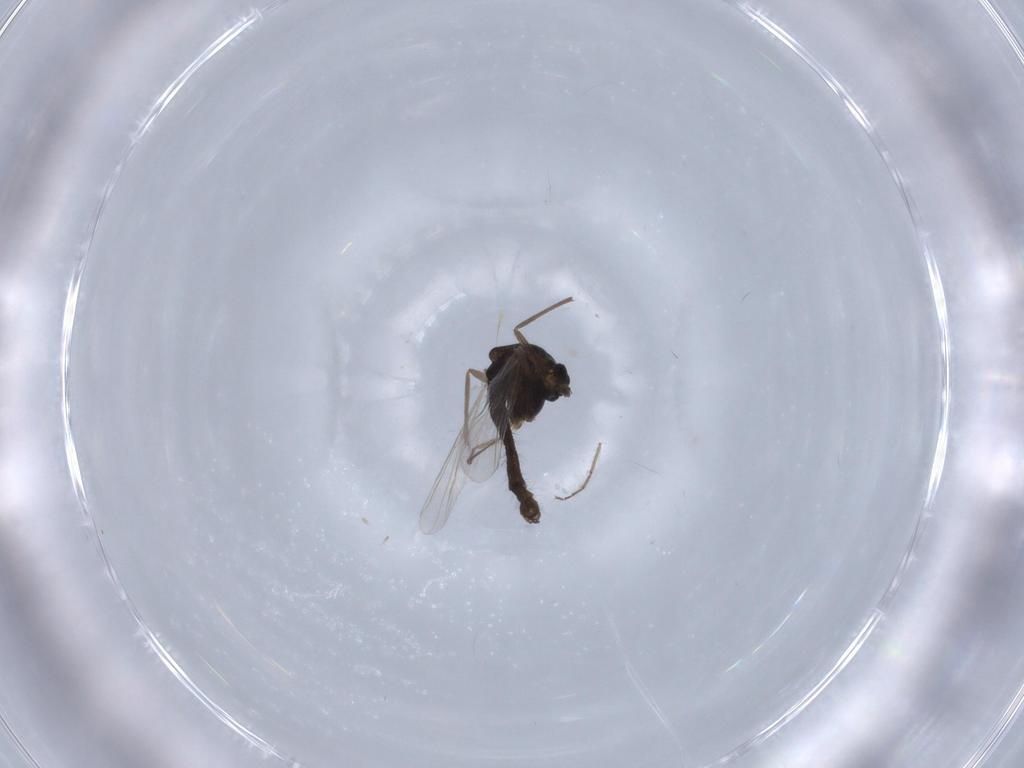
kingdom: Animalia
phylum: Arthropoda
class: Insecta
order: Diptera
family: Chironomidae
